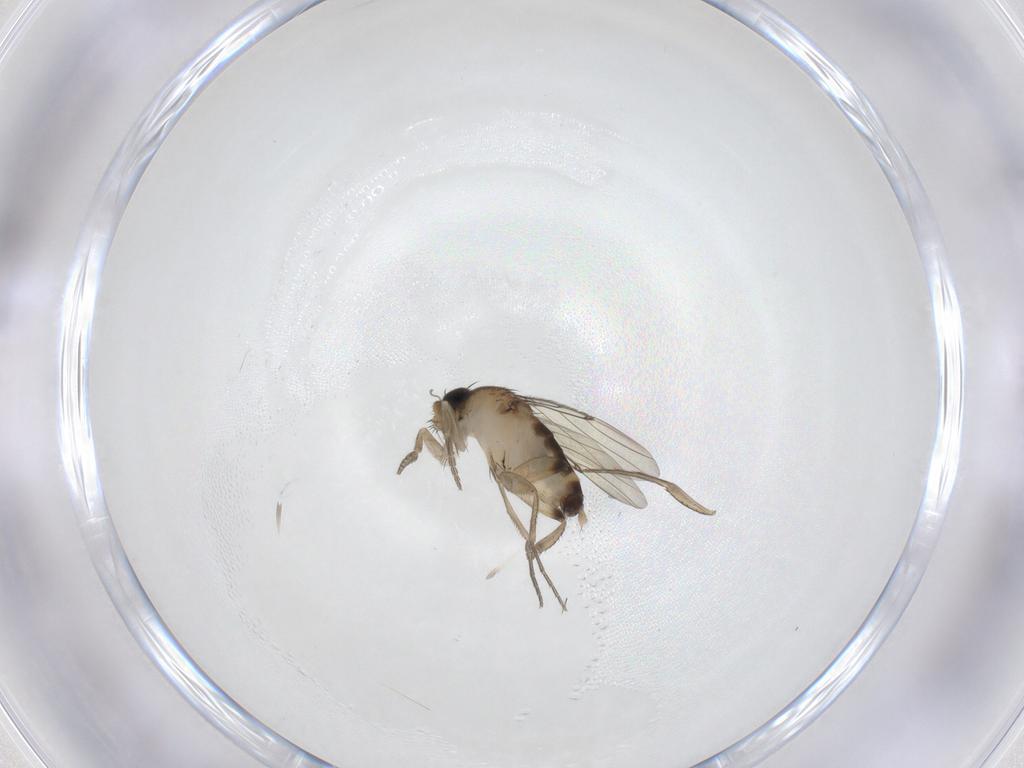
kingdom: Animalia
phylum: Arthropoda
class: Insecta
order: Diptera
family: Phoridae
